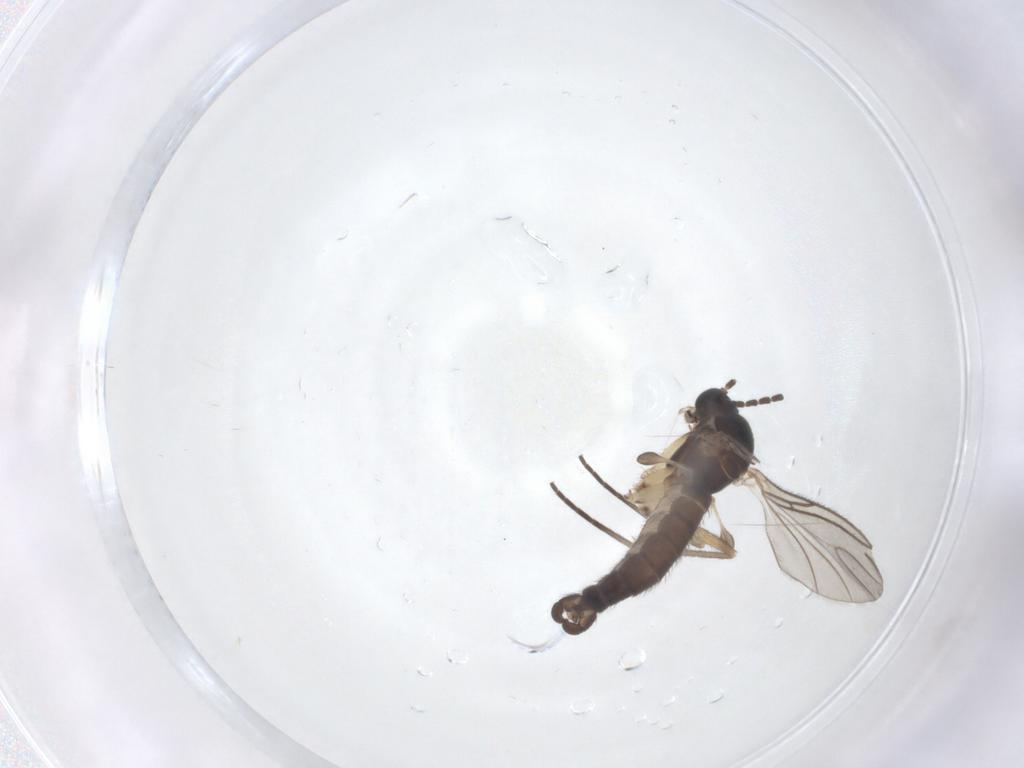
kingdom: Animalia
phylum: Arthropoda
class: Insecta
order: Diptera
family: Sciaridae
